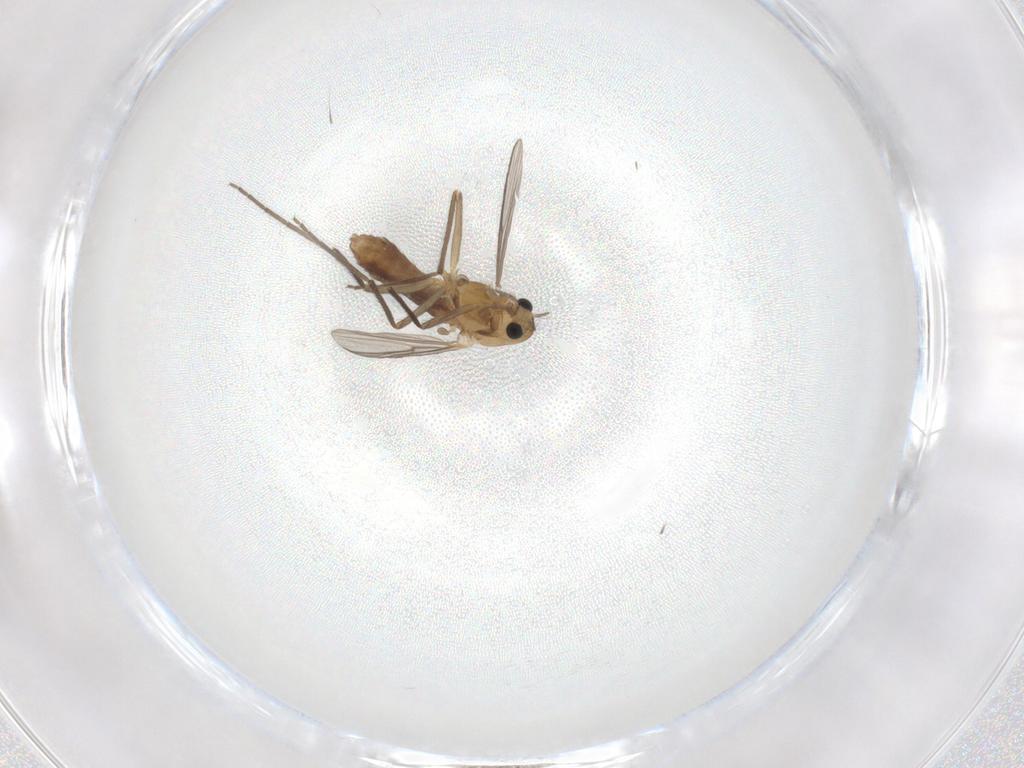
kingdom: Animalia
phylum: Arthropoda
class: Insecta
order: Diptera
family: Chironomidae
